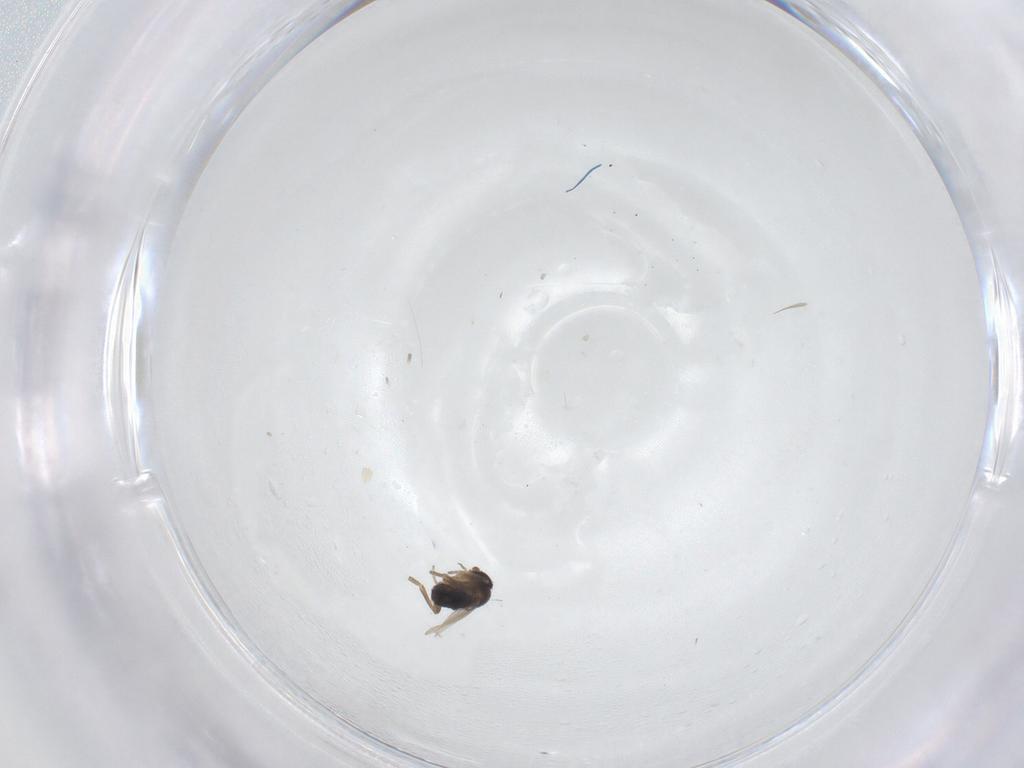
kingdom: Animalia
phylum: Arthropoda
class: Insecta
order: Diptera
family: Phoridae
